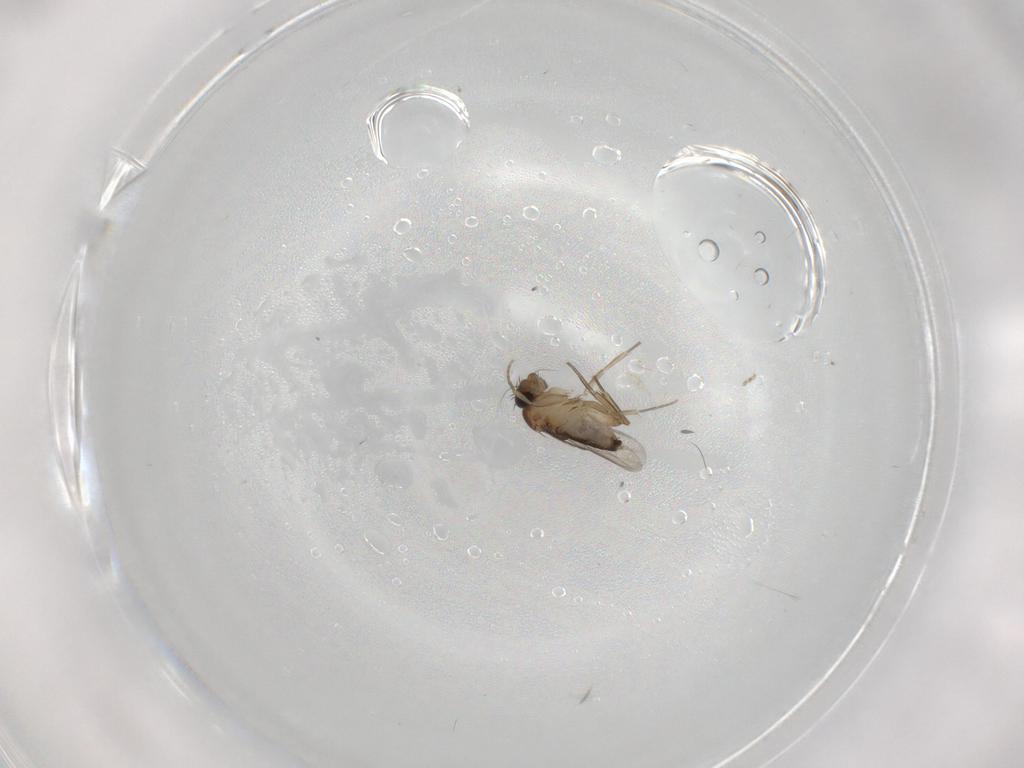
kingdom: Animalia
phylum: Arthropoda
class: Insecta
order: Diptera
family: Phoridae
